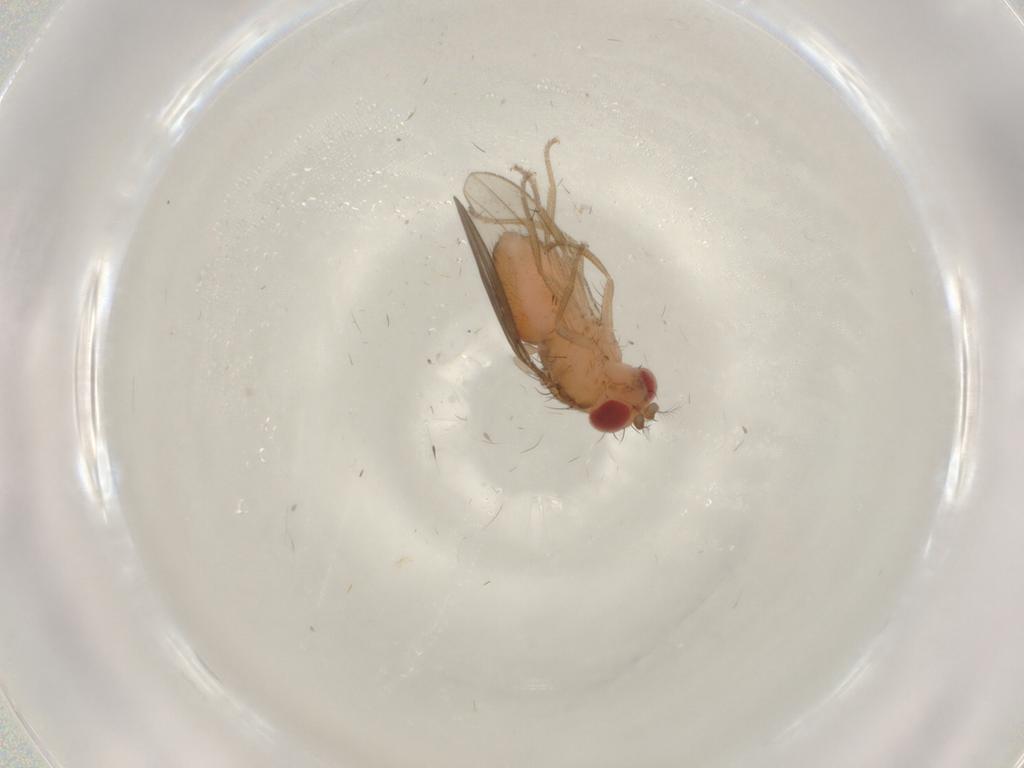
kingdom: Animalia
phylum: Arthropoda
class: Insecta
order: Diptera
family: Drosophilidae
